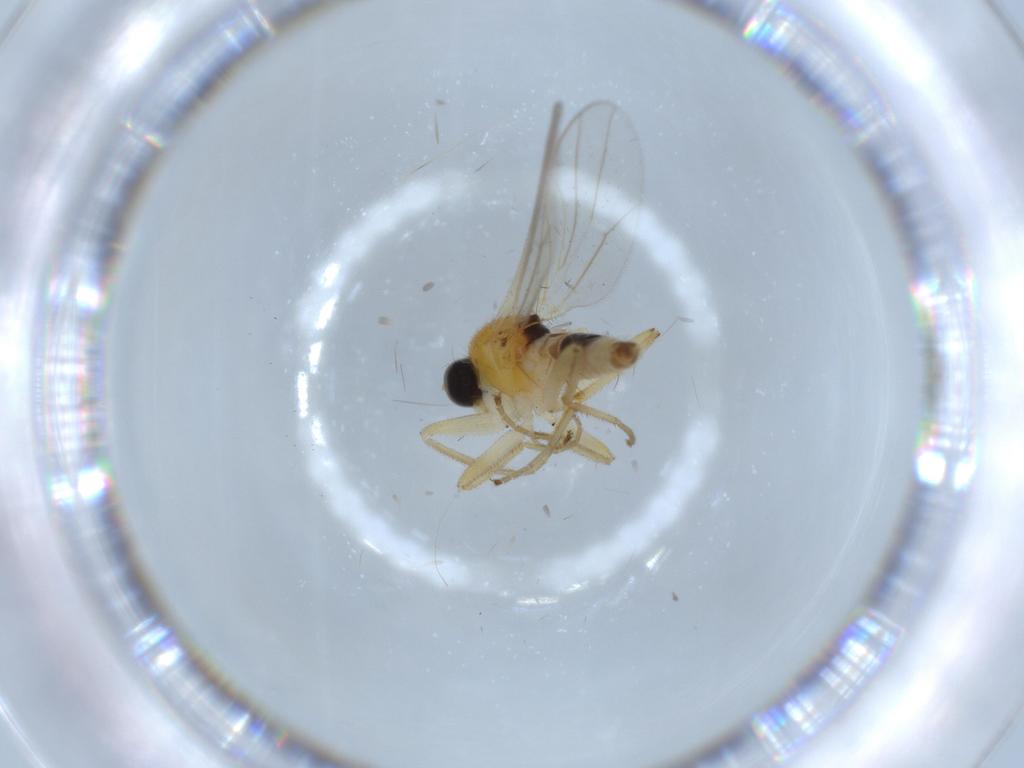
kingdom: Animalia
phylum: Arthropoda
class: Insecta
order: Diptera
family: Hybotidae
